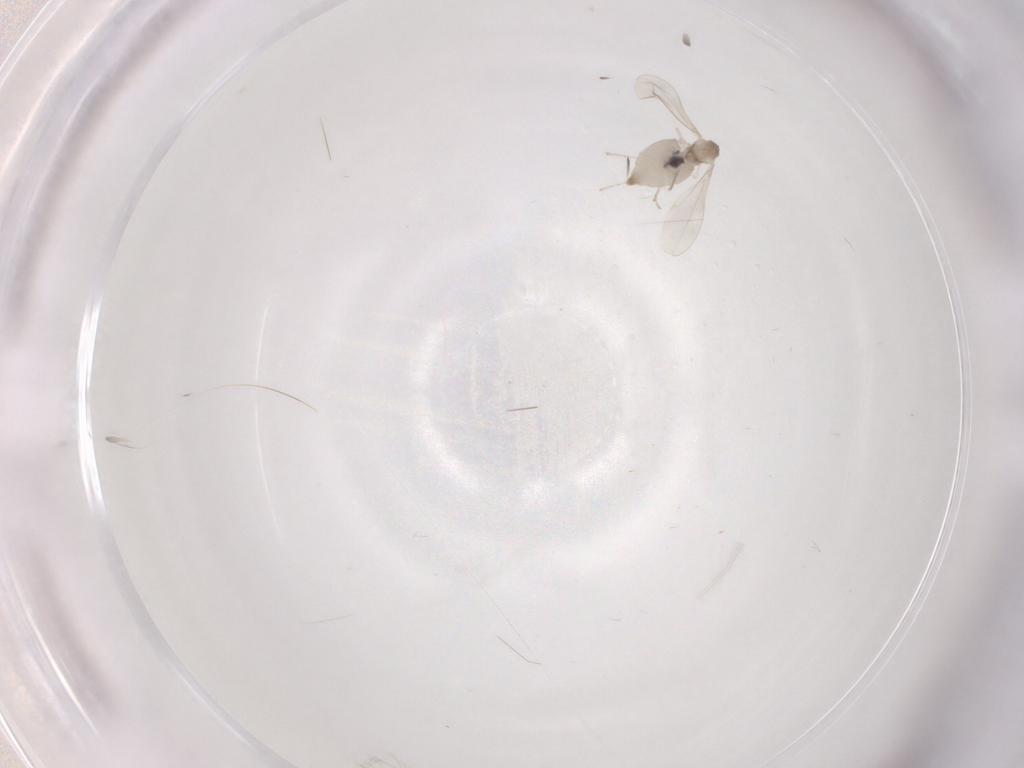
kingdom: Animalia
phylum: Arthropoda
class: Insecta
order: Diptera
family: Cecidomyiidae
